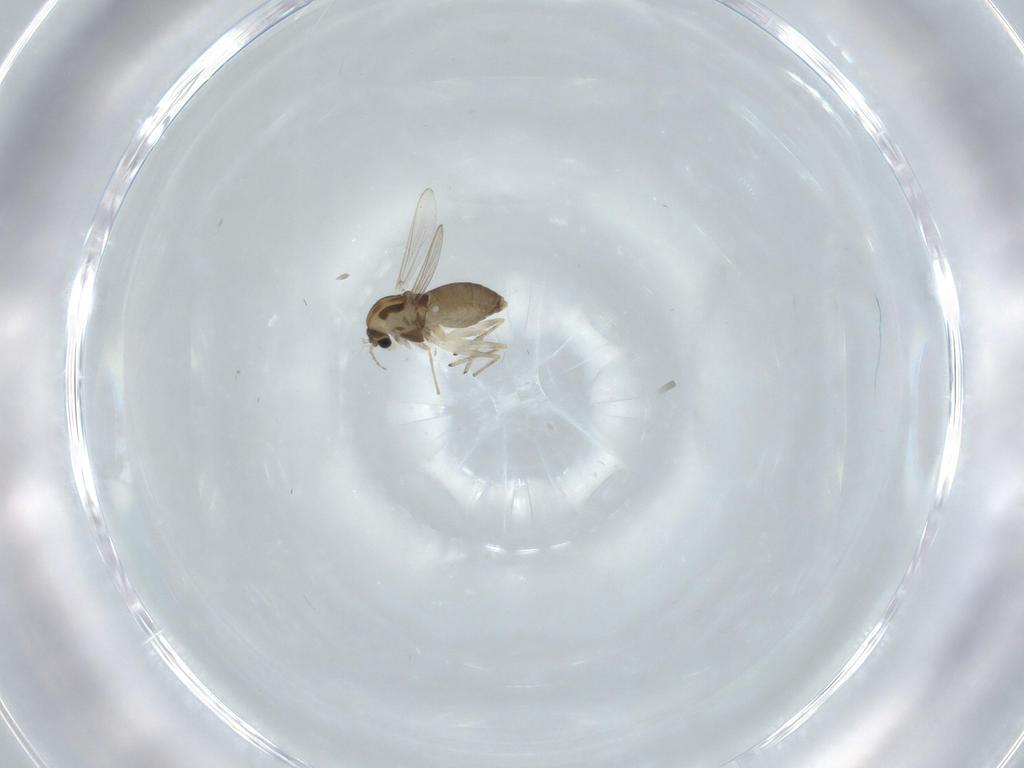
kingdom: Animalia
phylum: Arthropoda
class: Insecta
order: Diptera
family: Chironomidae
